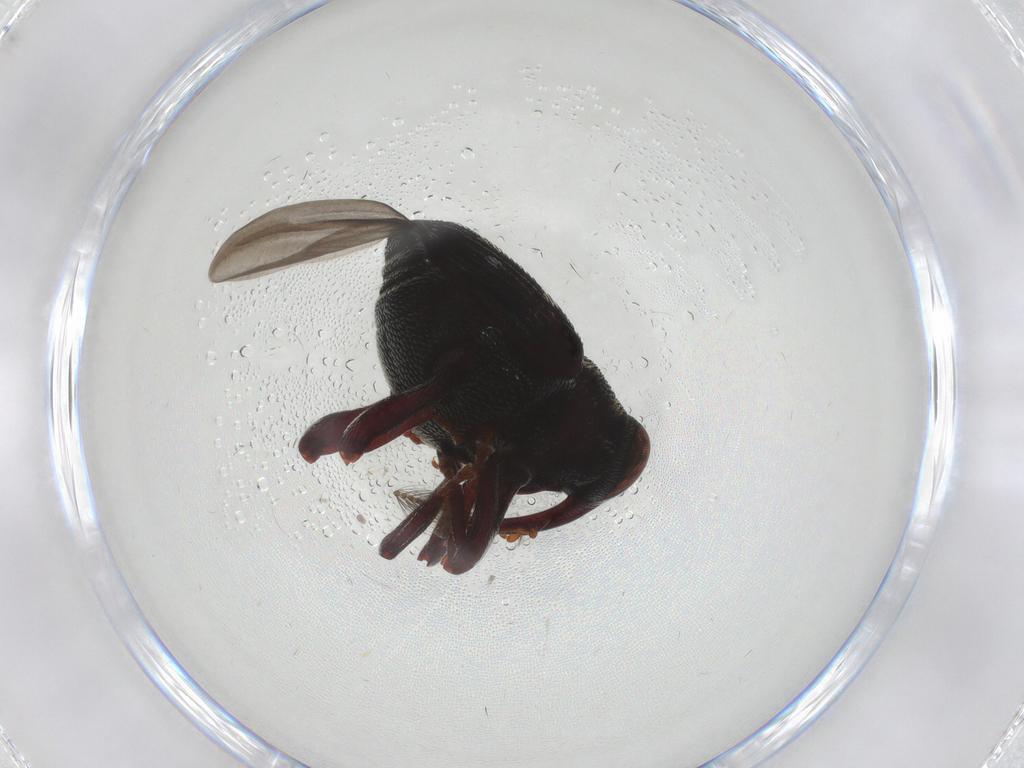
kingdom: Animalia
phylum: Arthropoda
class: Insecta
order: Coleoptera
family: Curculionidae
